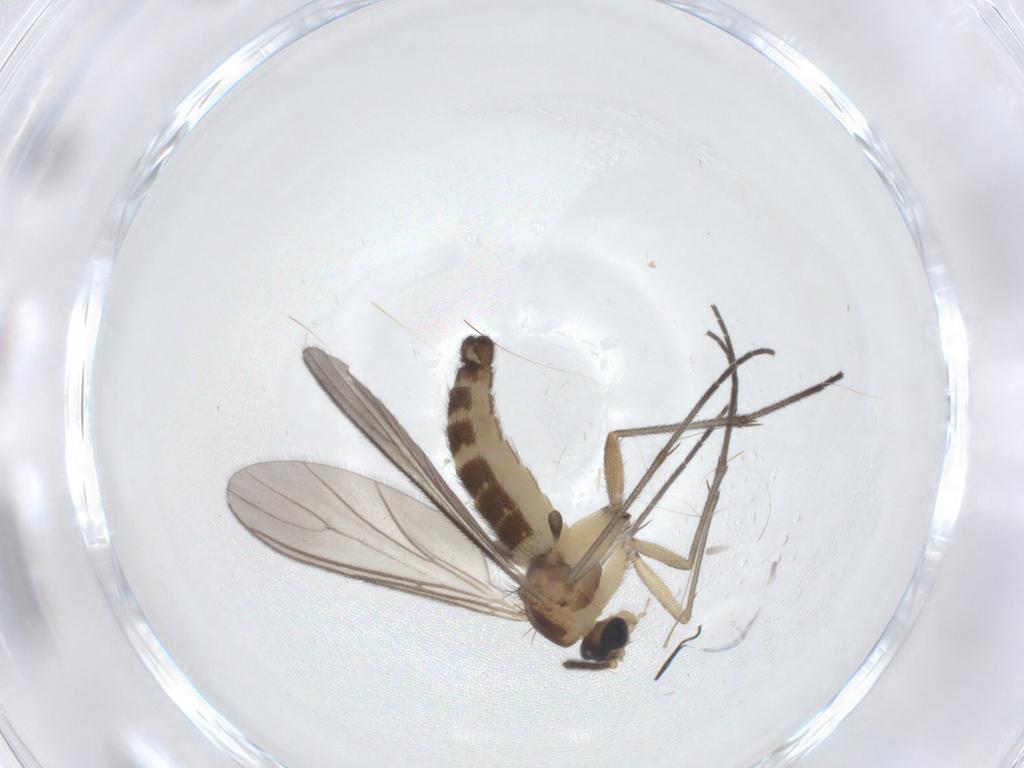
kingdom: Animalia
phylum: Arthropoda
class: Insecta
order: Diptera
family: Sciaridae
